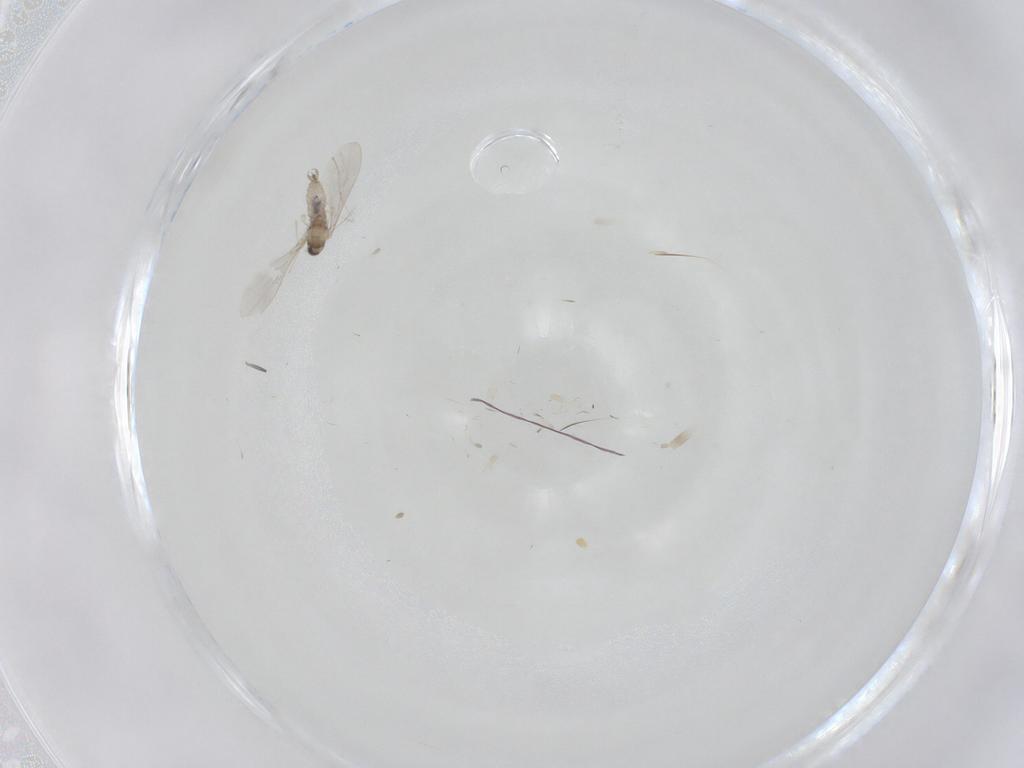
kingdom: Animalia
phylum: Arthropoda
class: Insecta
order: Diptera
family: Cecidomyiidae
